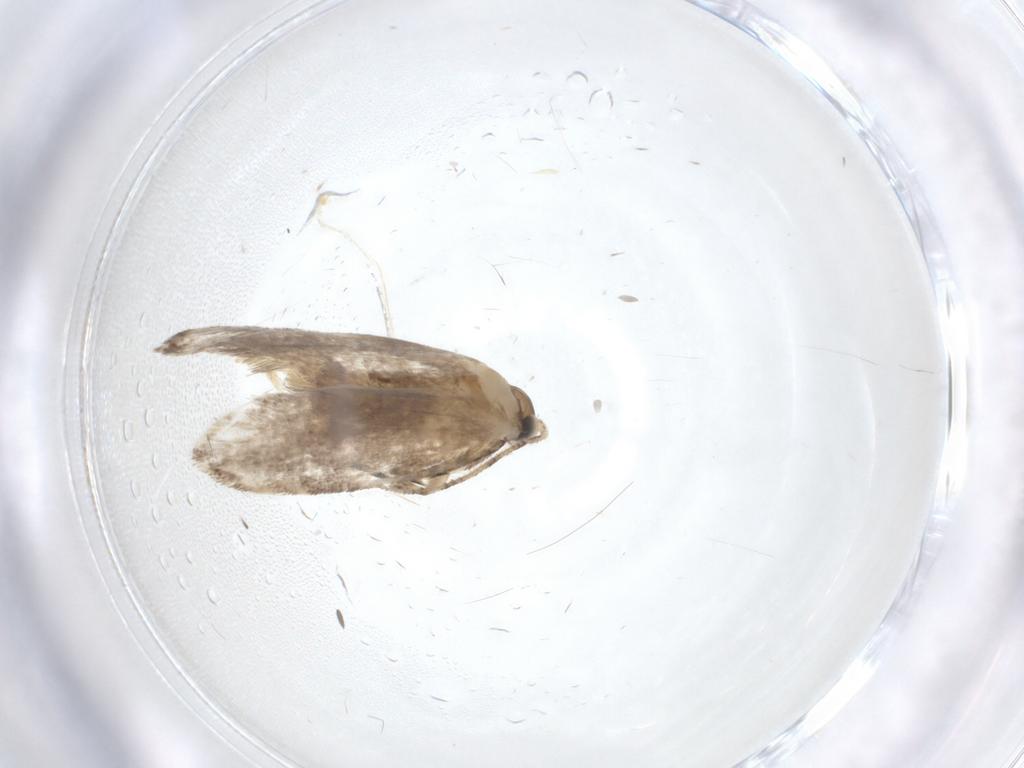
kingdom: Animalia
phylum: Arthropoda
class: Insecta
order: Lepidoptera
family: Tineidae
